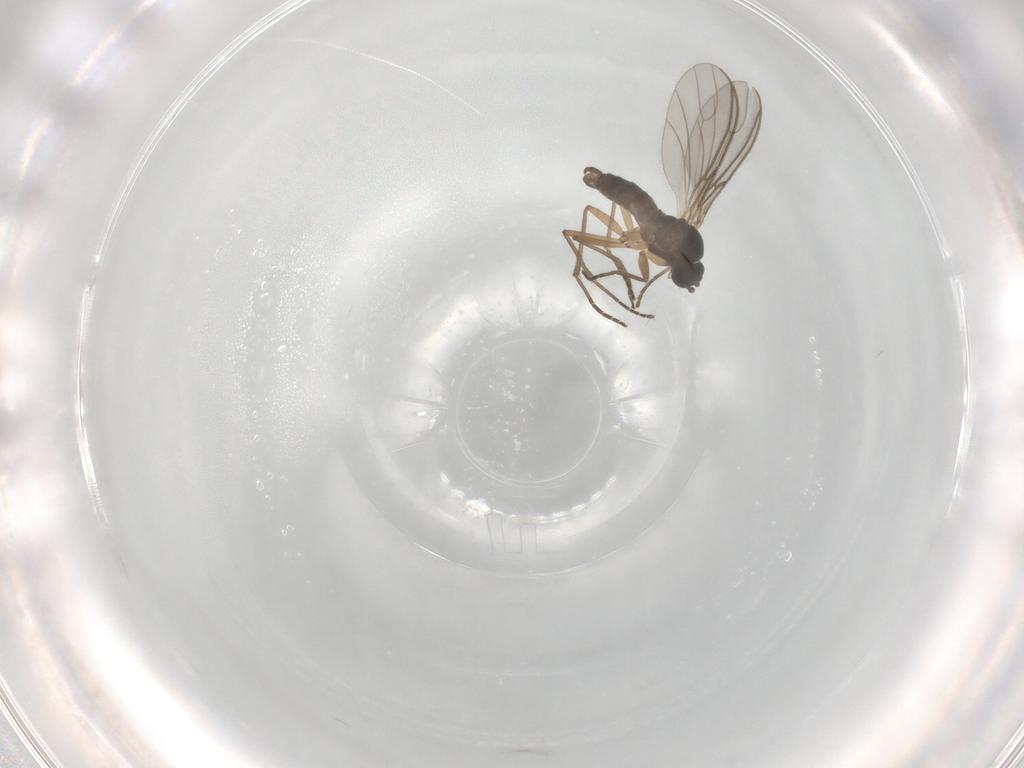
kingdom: Animalia
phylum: Arthropoda
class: Insecta
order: Diptera
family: Sciaridae
